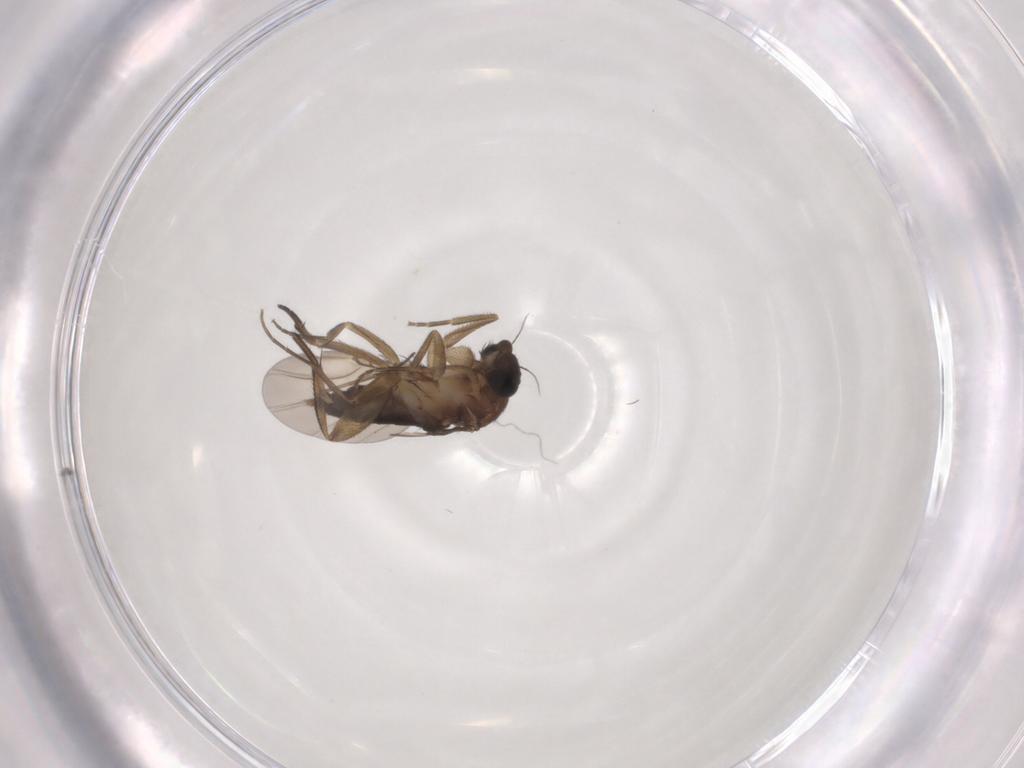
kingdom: Animalia
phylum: Arthropoda
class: Insecta
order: Diptera
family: Phoridae
